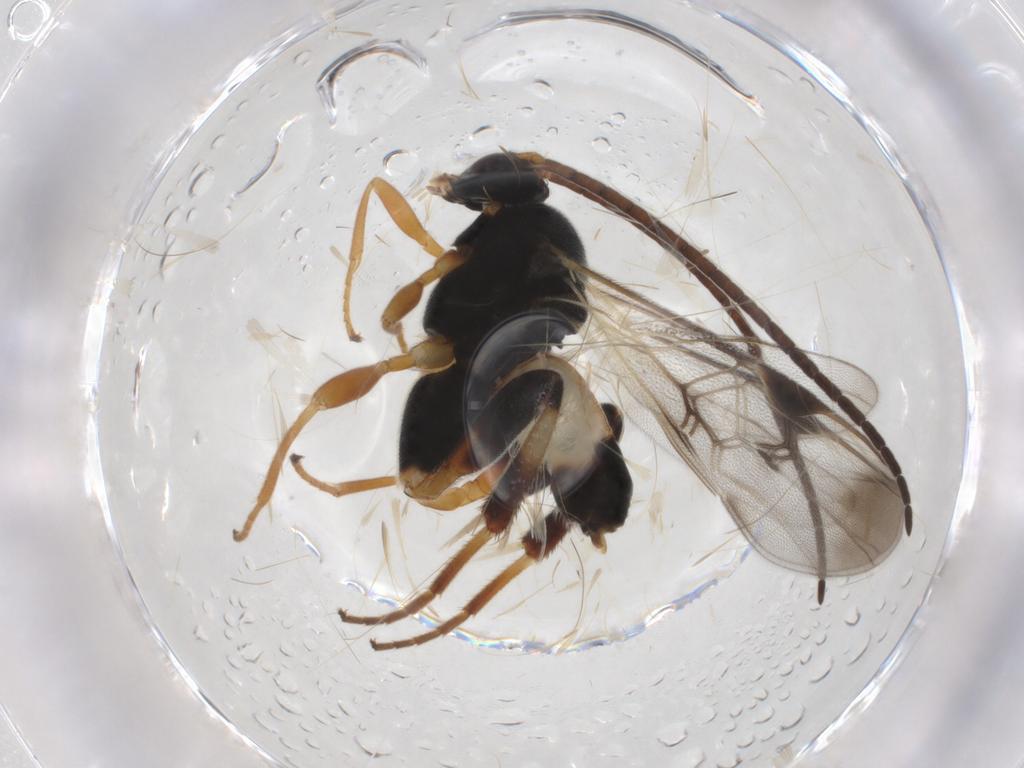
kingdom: Animalia
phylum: Arthropoda
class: Insecta
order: Hymenoptera
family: Braconidae
